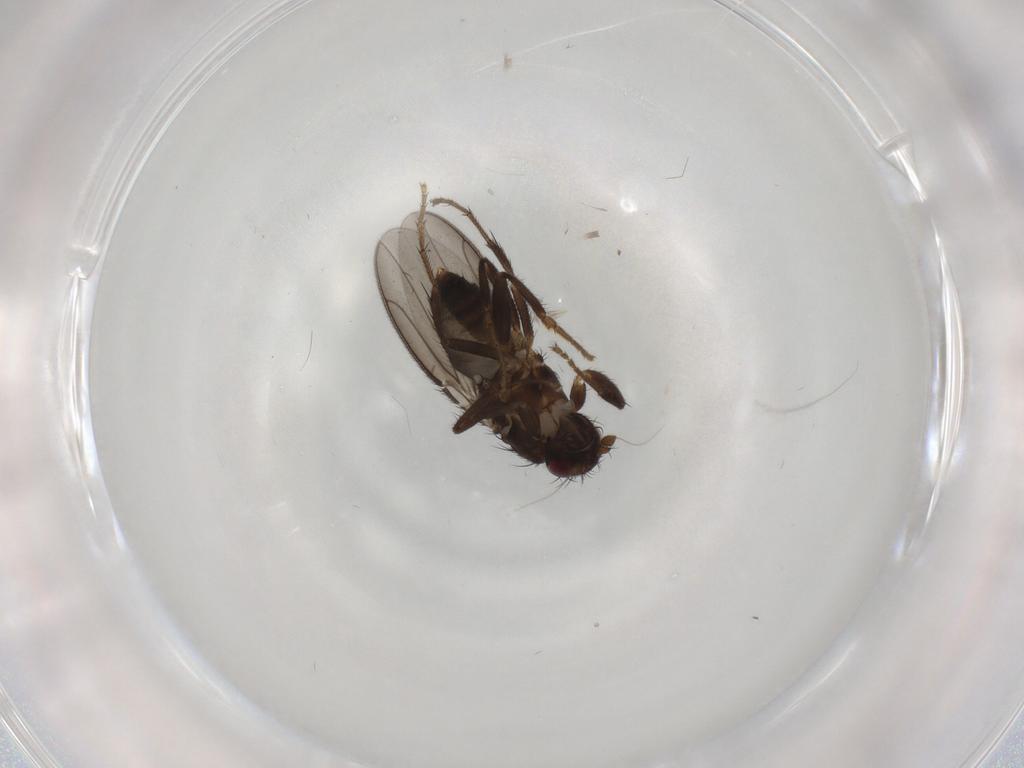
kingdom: Animalia
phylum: Arthropoda
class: Insecta
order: Diptera
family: Sphaeroceridae
